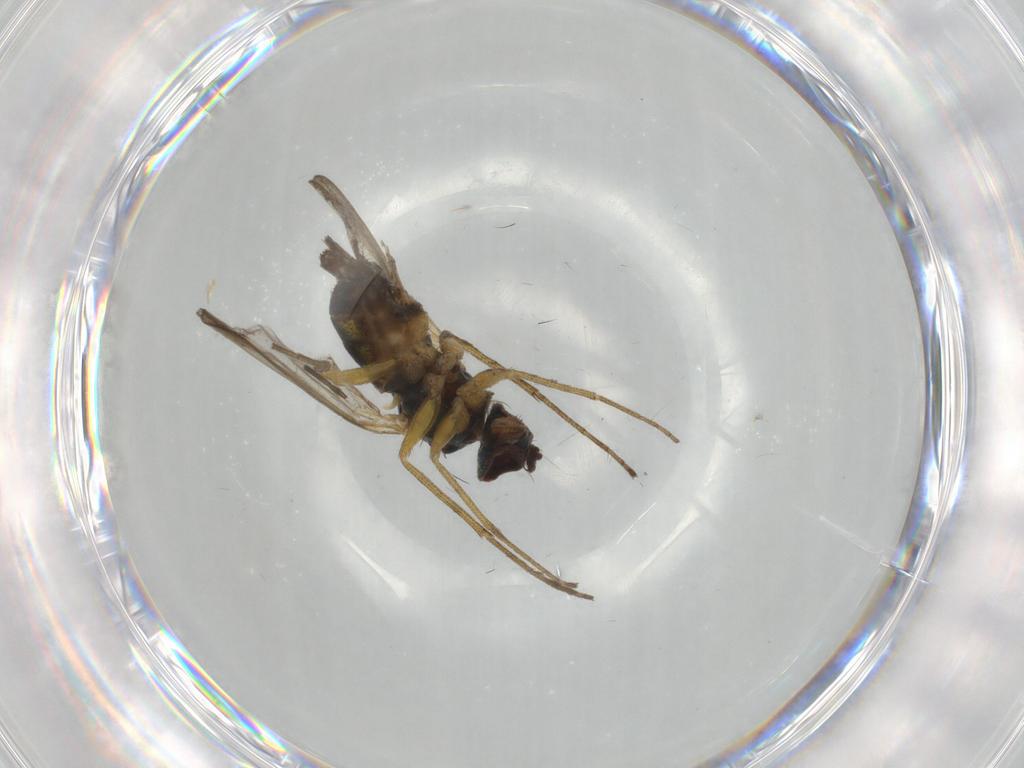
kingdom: Animalia
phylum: Arthropoda
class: Insecta
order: Diptera
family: Dolichopodidae
